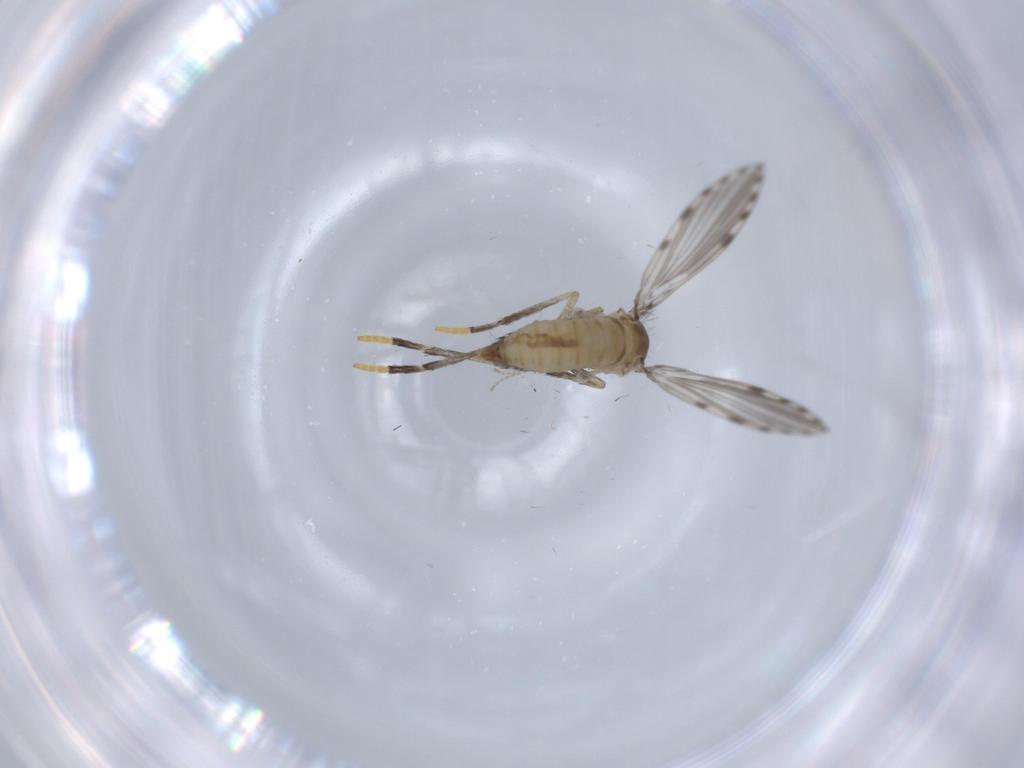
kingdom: Animalia
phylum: Arthropoda
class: Insecta
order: Diptera
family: Psychodidae
